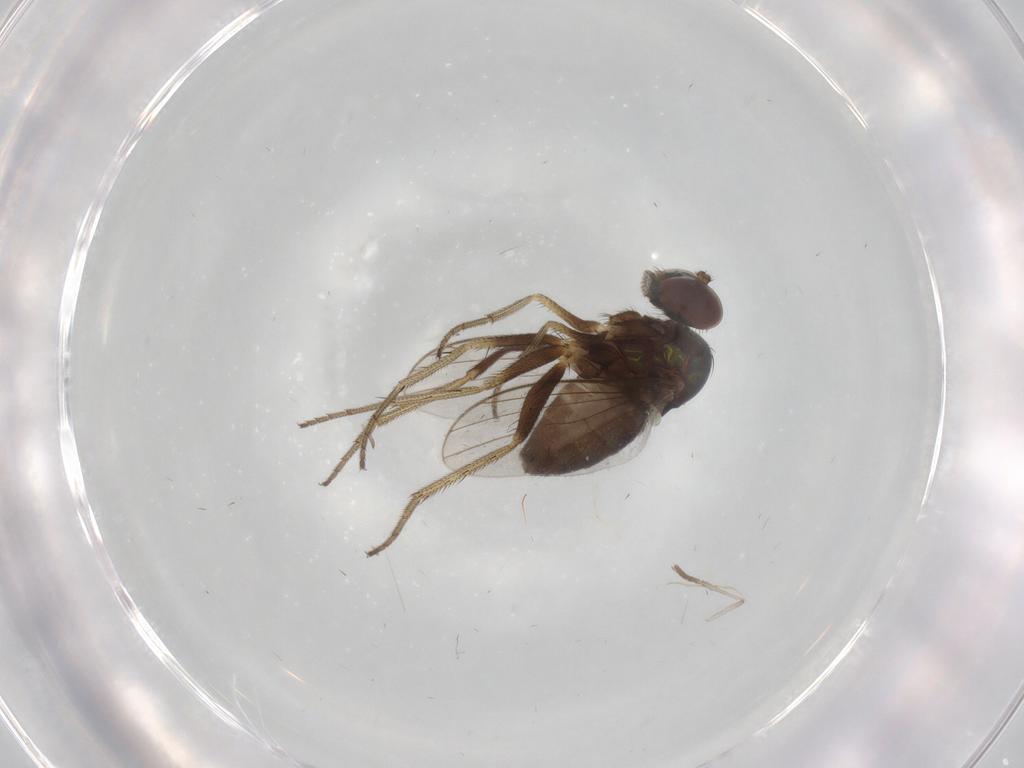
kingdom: Animalia
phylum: Arthropoda
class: Insecta
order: Diptera
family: Psychodidae
